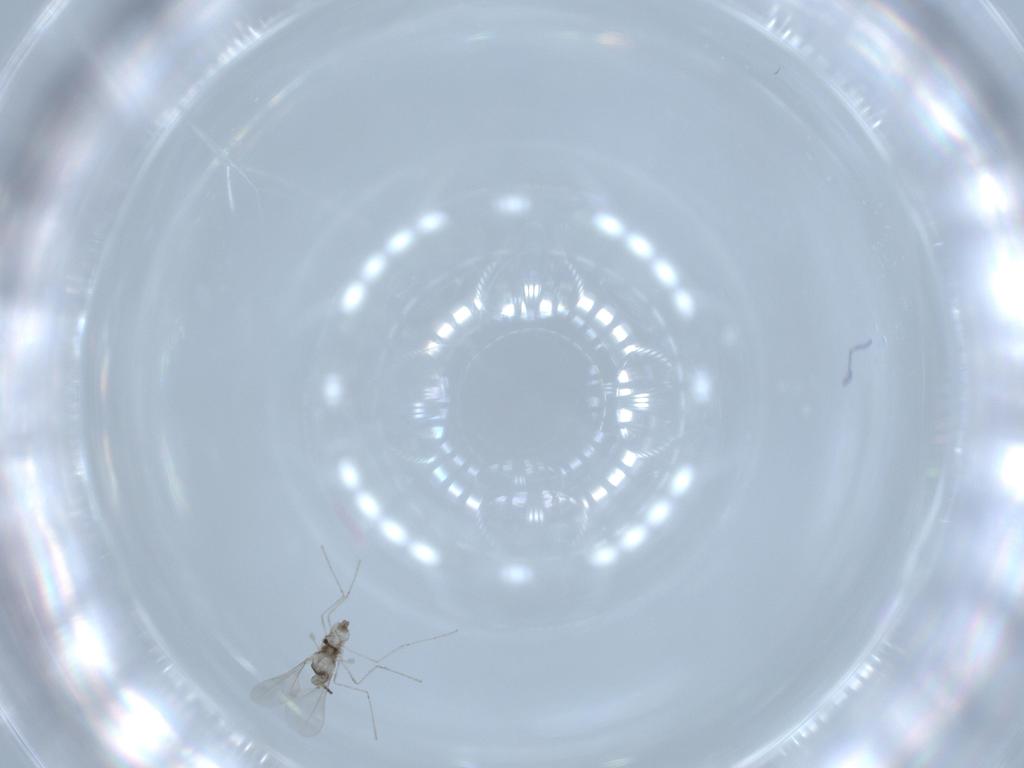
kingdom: Animalia
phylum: Arthropoda
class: Insecta
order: Diptera
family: Cecidomyiidae
